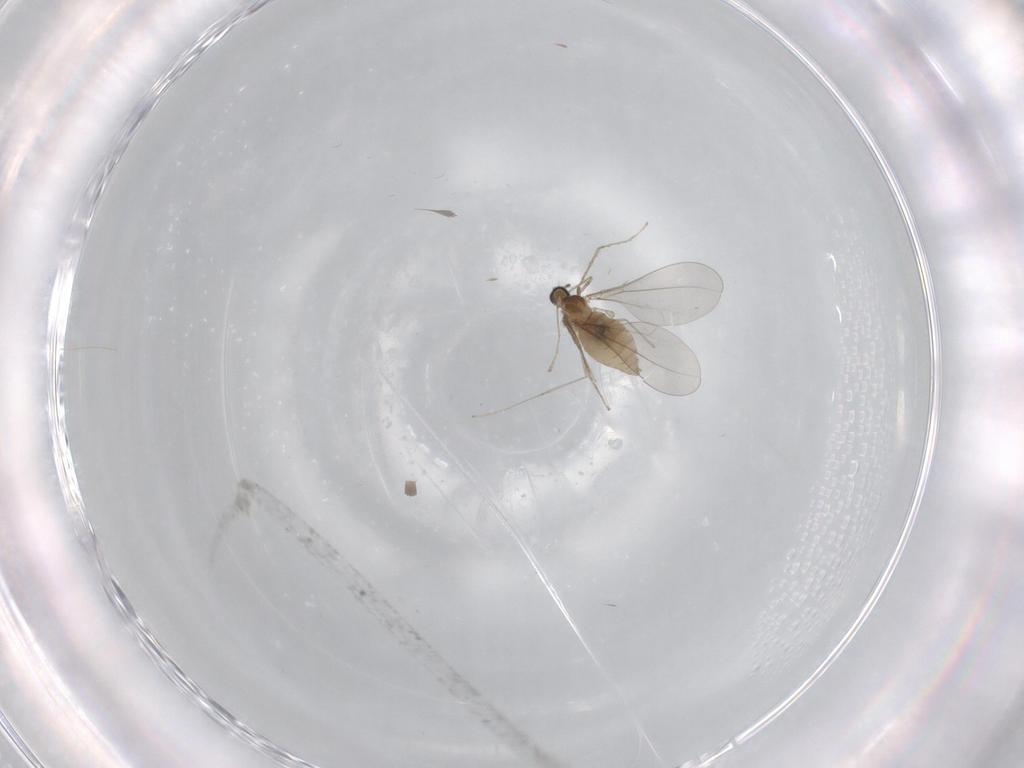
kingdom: Animalia
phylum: Arthropoda
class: Insecta
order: Diptera
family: Cecidomyiidae
